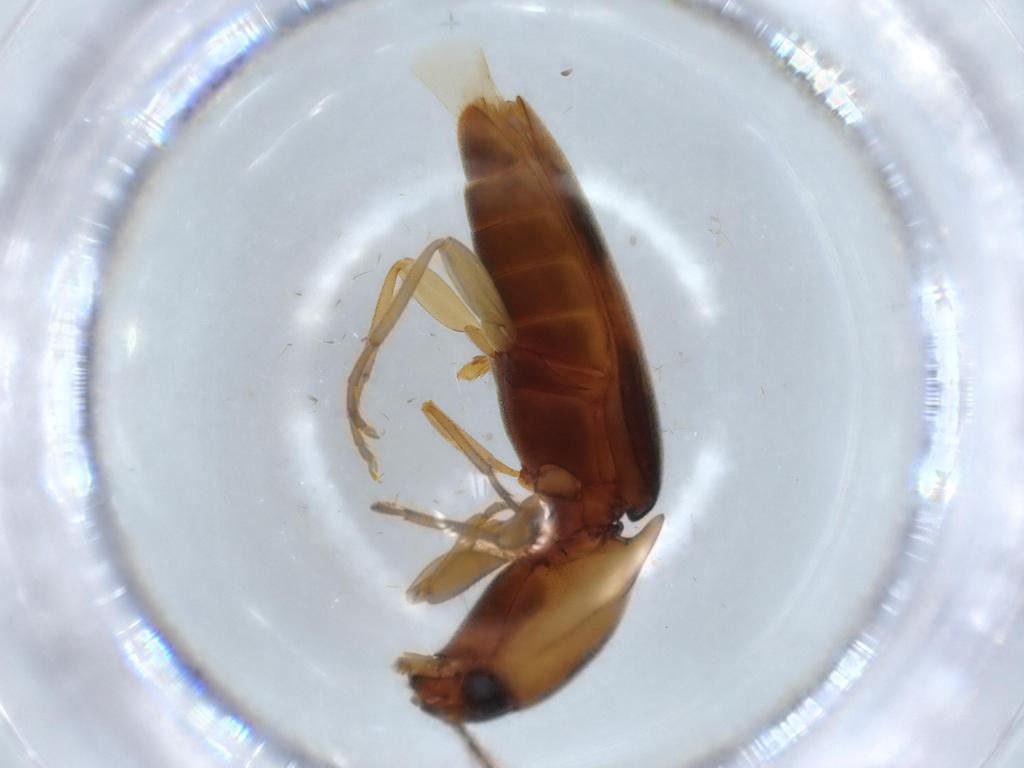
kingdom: Animalia
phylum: Arthropoda
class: Insecta
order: Coleoptera
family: Elateridae
